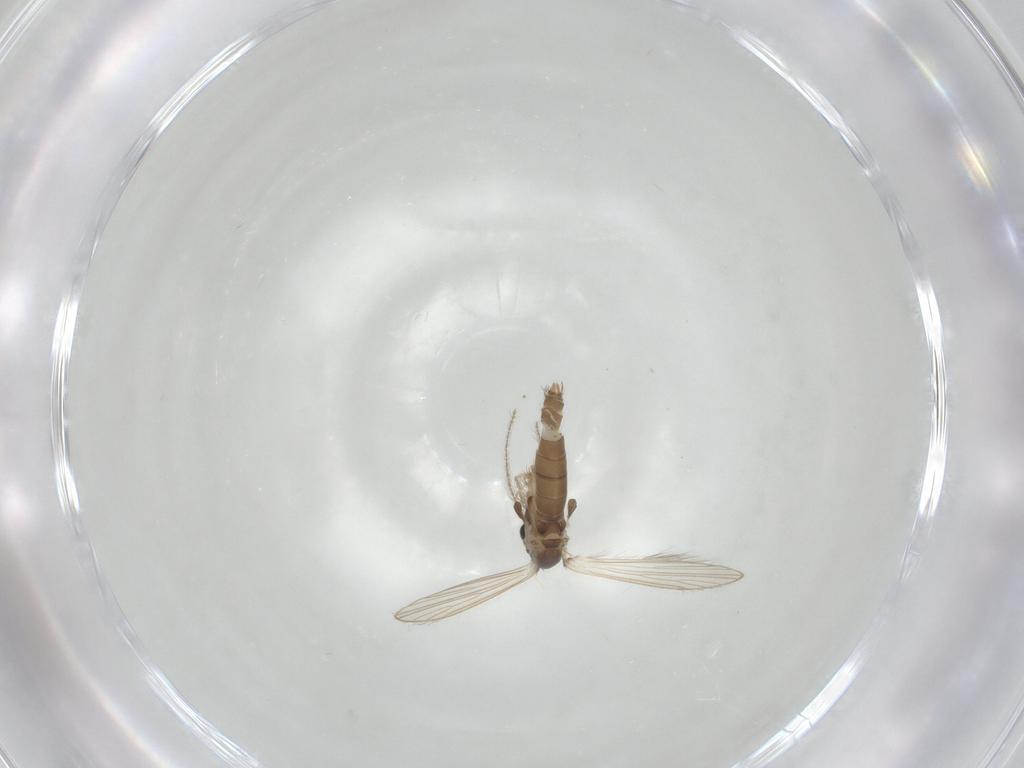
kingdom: Animalia
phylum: Arthropoda
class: Insecta
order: Diptera
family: Psychodidae
